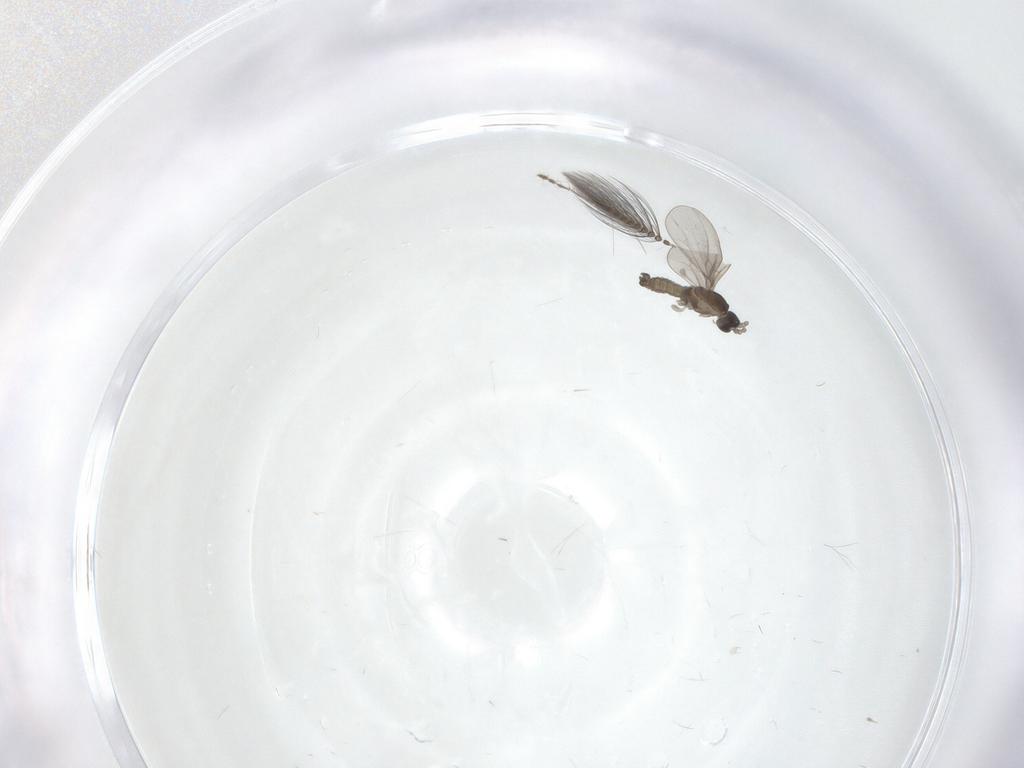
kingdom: Animalia
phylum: Arthropoda
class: Insecta
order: Diptera
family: Cecidomyiidae
